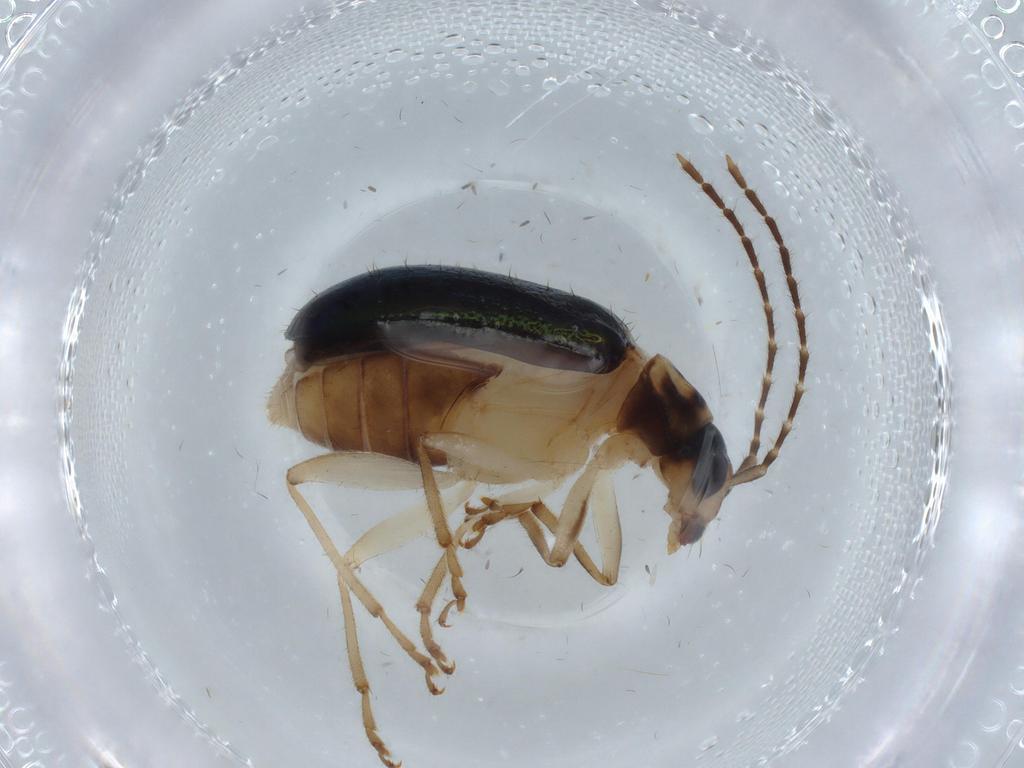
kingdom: Animalia
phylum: Arthropoda
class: Insecta
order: Coleoptera
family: Chrysomelidae
